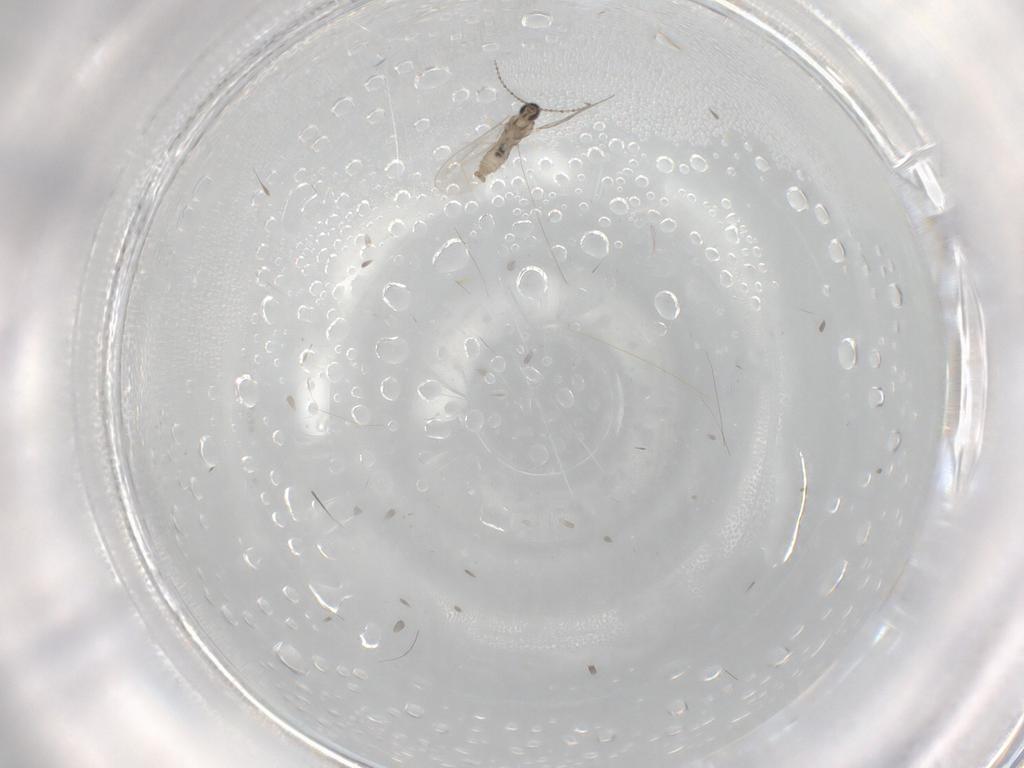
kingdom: Animalia
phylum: Arthropoda
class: Insecta
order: Diptera
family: Cecidomyiidae
